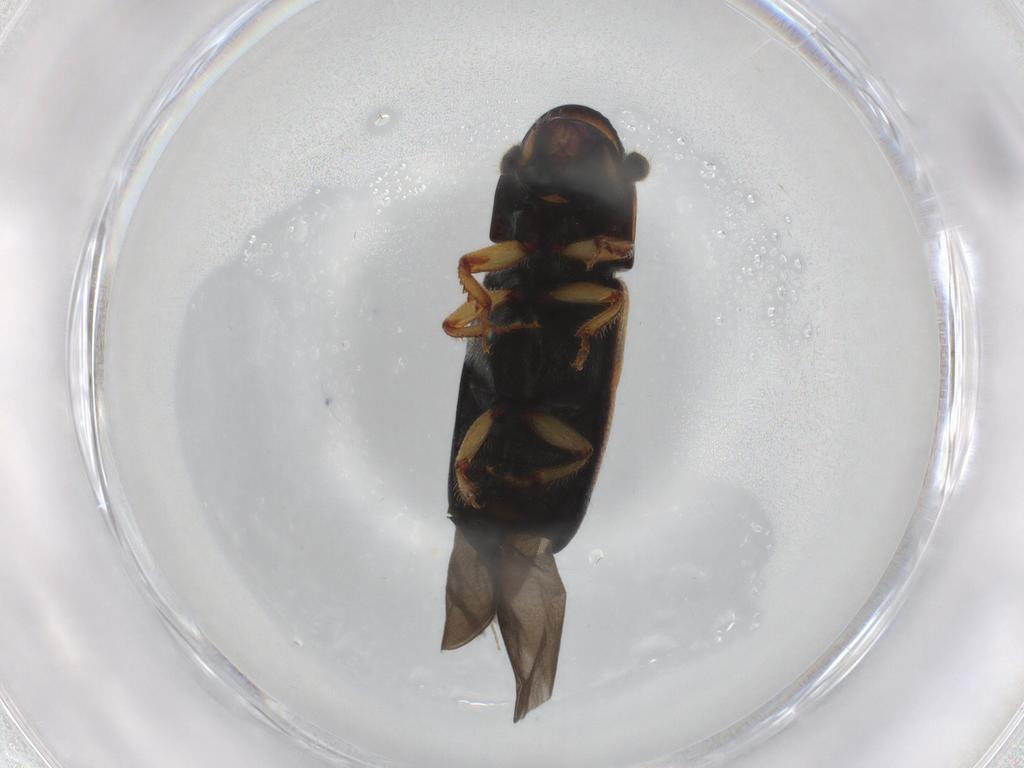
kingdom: Animalia
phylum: Arthropoda
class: Insecta
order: Coleoptera
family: Curculionidae
